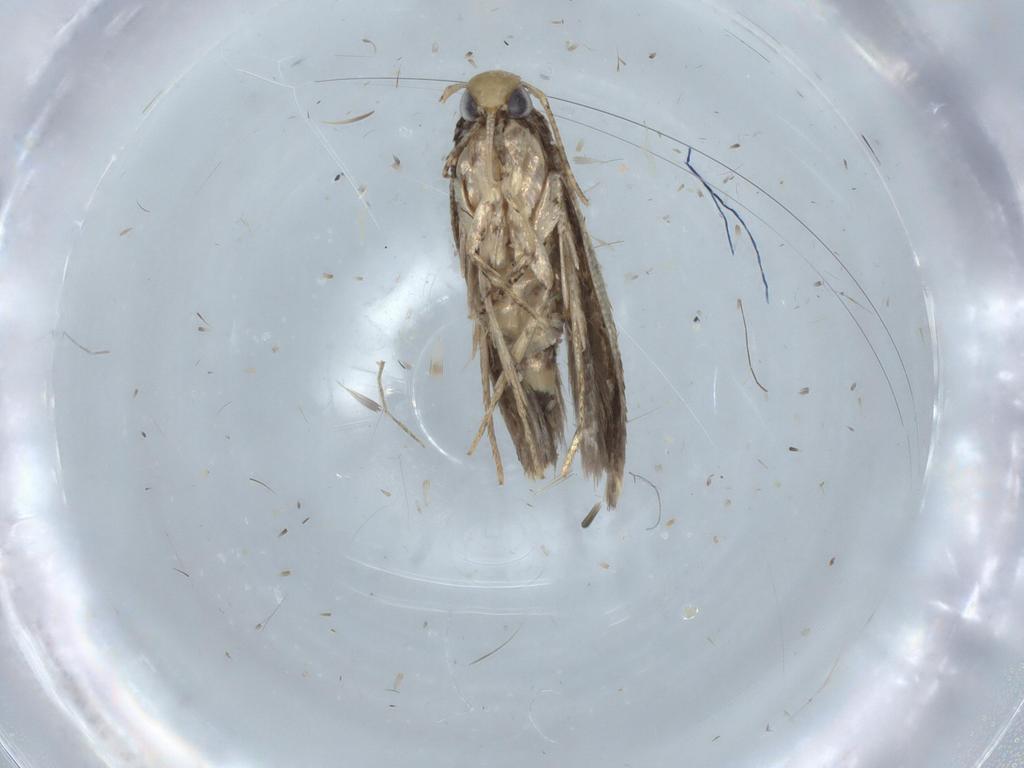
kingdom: Animalia
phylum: Arthropoda
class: Insecta
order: Lepidoptera
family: Gelechiidae
